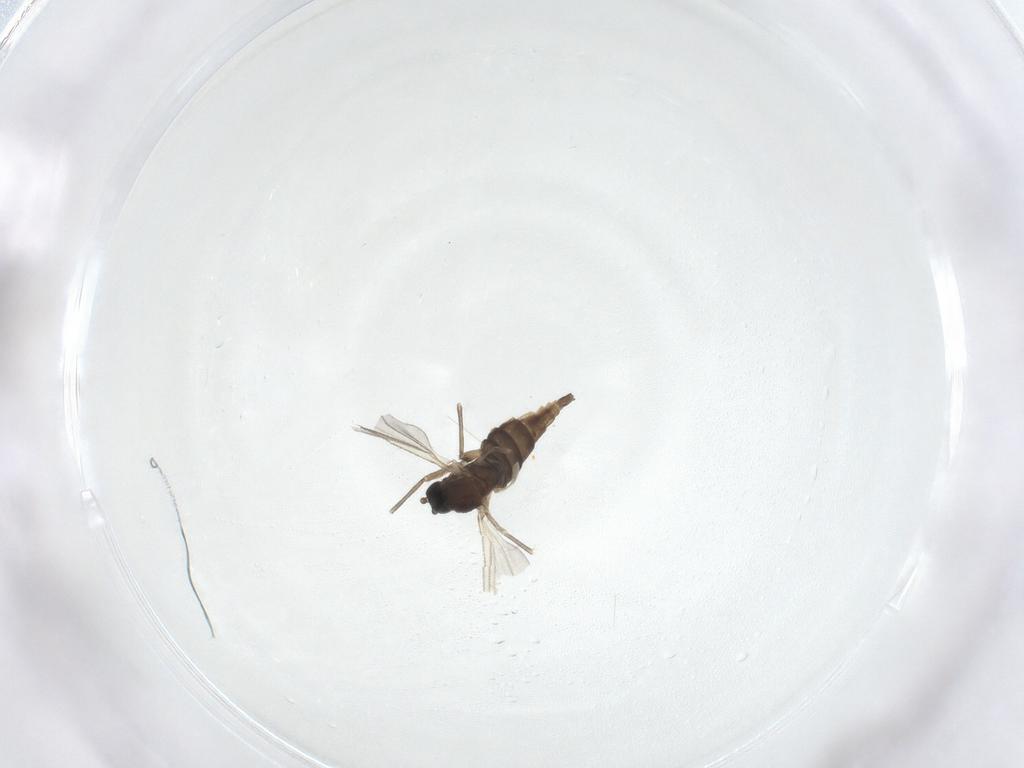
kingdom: Animalia
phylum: Arthropoda
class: Insecta
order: Diptera
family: Sciaridae
